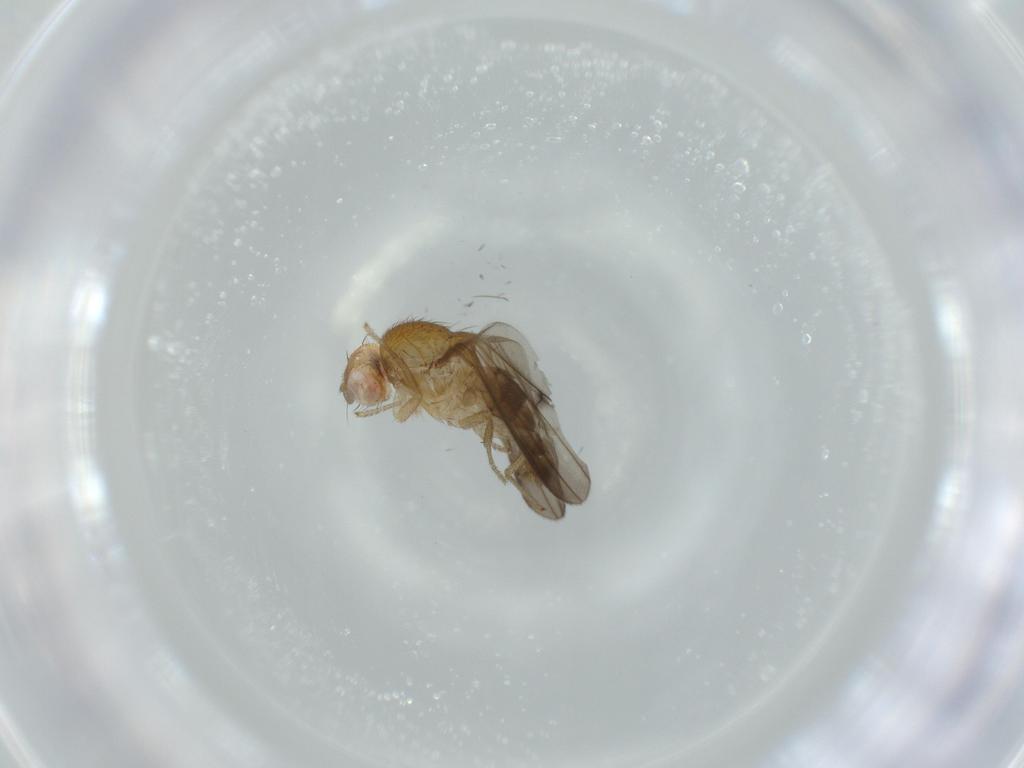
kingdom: Animalia
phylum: Arthropoda
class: Insecta
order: Diptera
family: Drosophilidae
